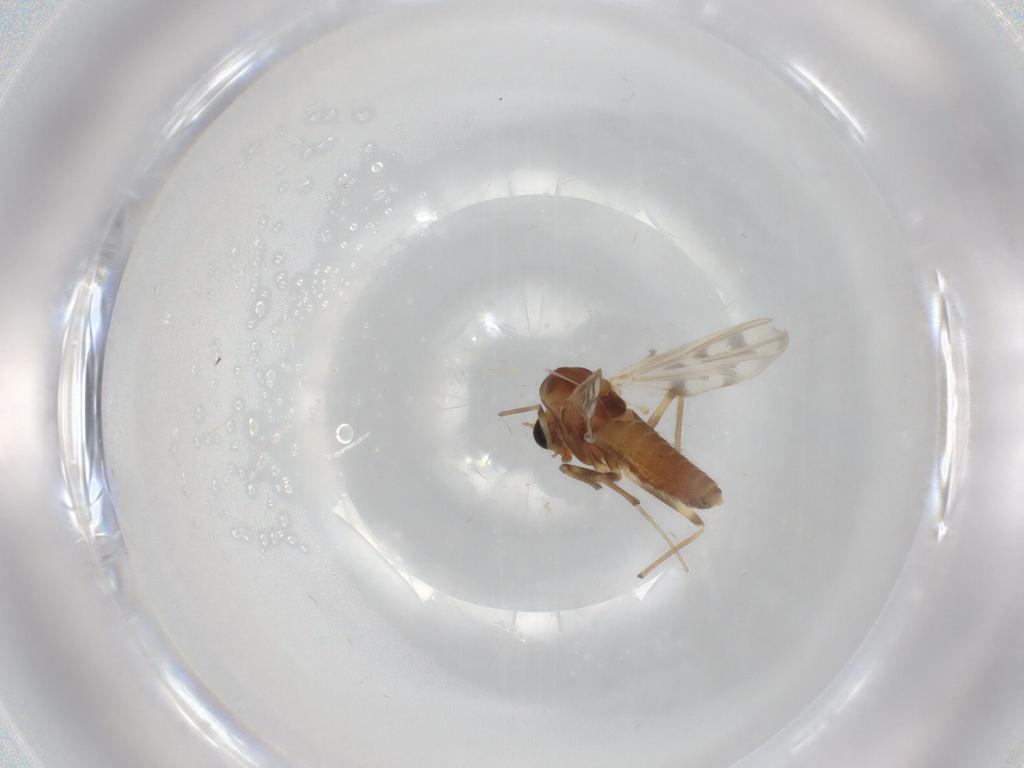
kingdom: Animalia
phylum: Arthropoda
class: Insecta
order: Diptera
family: Chironomidae
